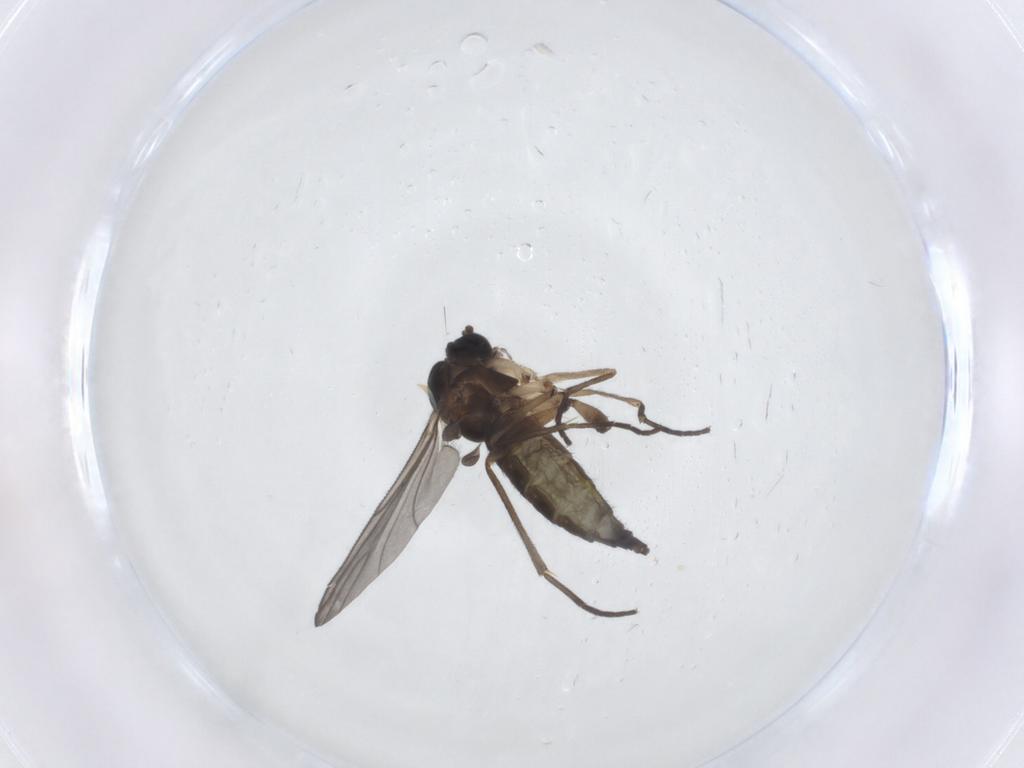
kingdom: Animalia
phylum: Arthropoda
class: Insecta
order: Diptera
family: Sciaridae
